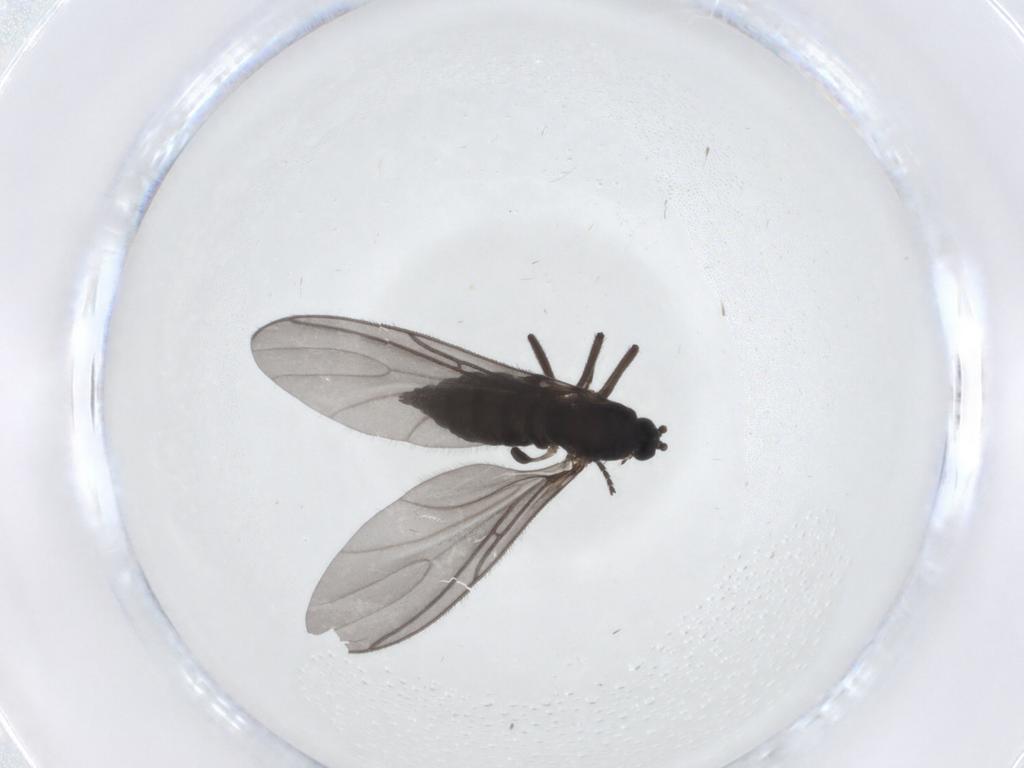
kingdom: Animalia
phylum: Arthropoda
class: Insecta
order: Diptera
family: Sciaridae
